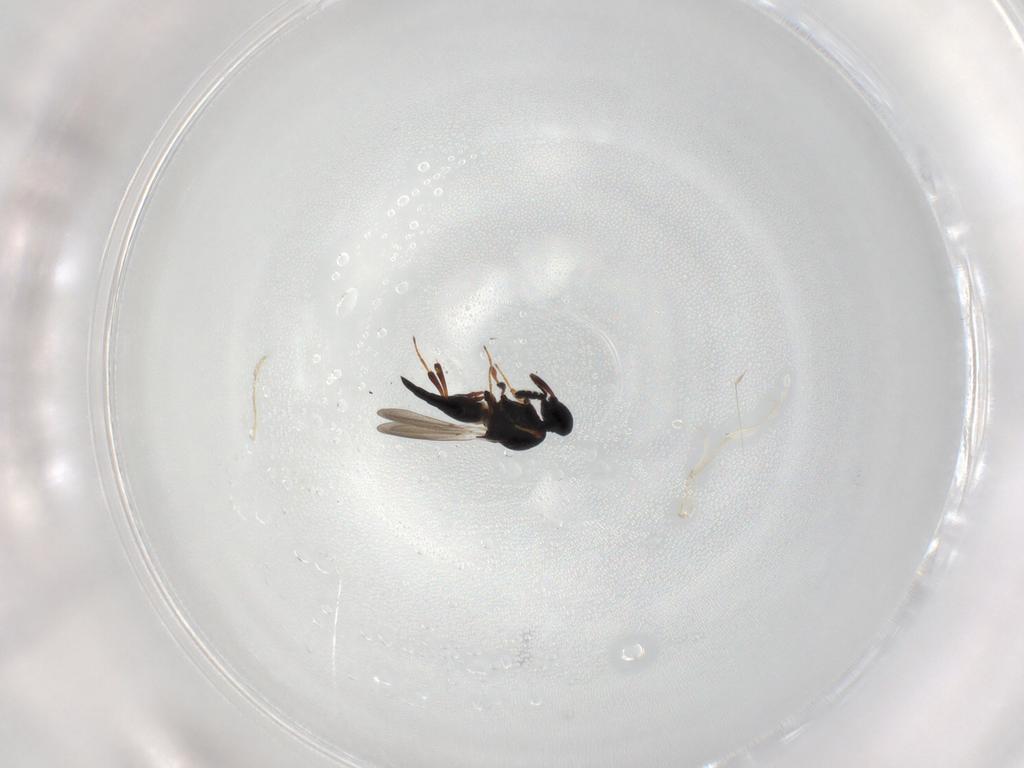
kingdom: Animalia
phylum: Arthropoda
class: Insecta
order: Hymenoptera
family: Platygastridae
